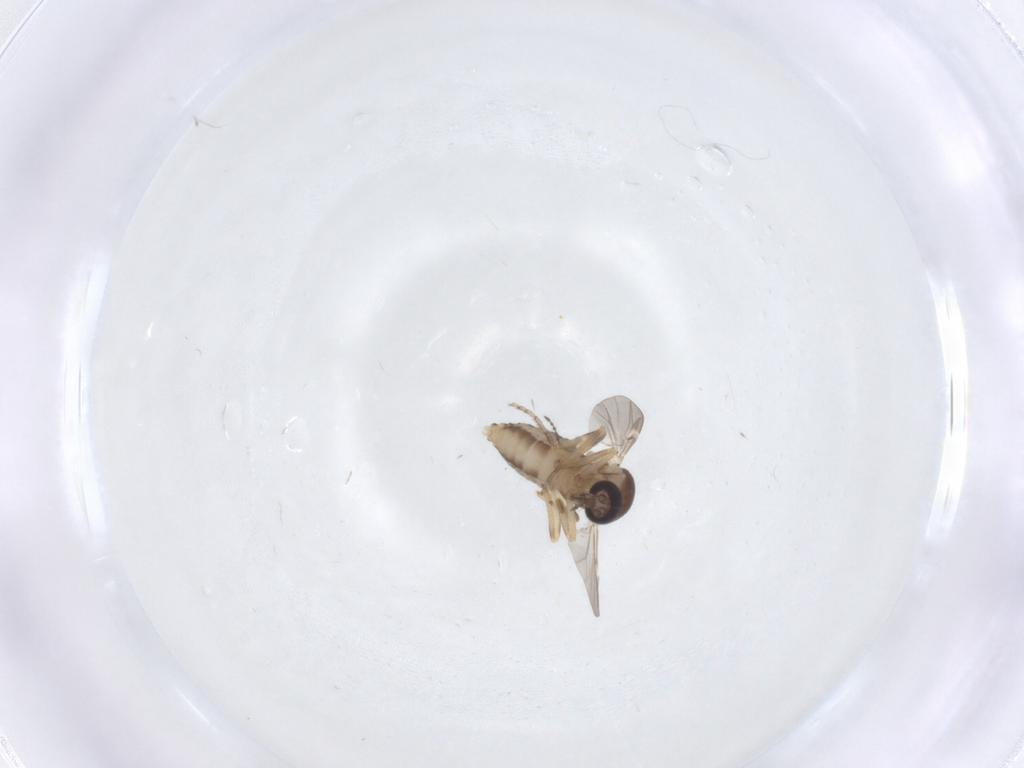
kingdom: Animalia
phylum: Arthropoda
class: Insecta
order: Diptera
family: Ceratopogonidae
